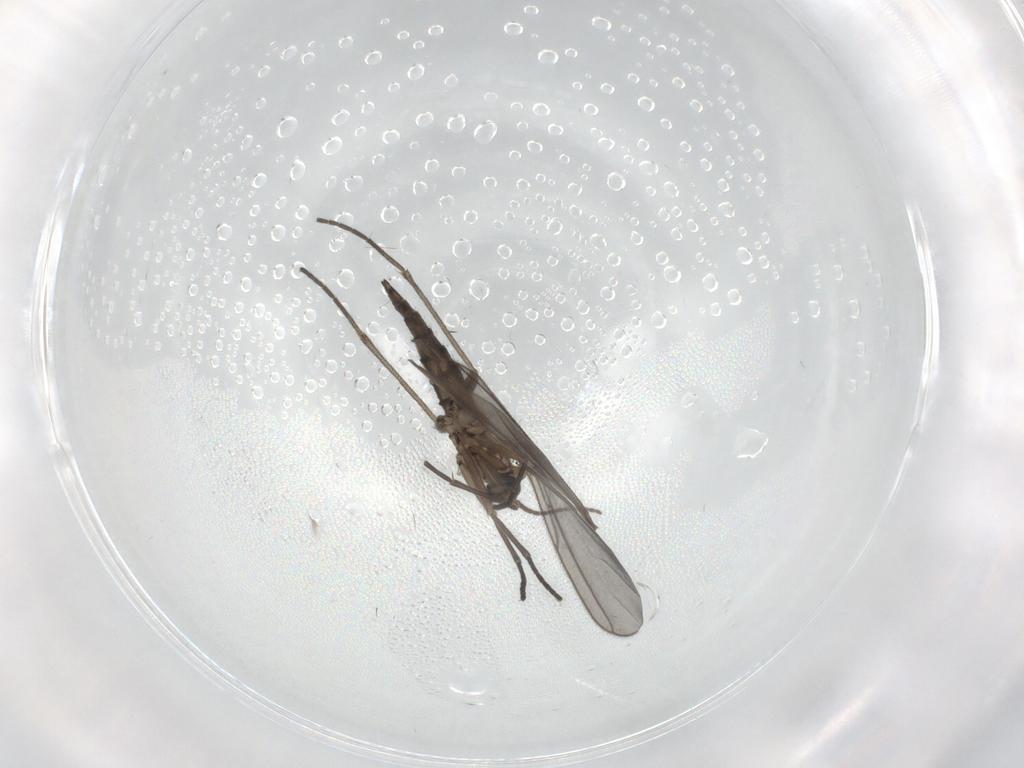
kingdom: Animalia
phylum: Arthropoda
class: Insecta
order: Diptera
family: Sciaridae
